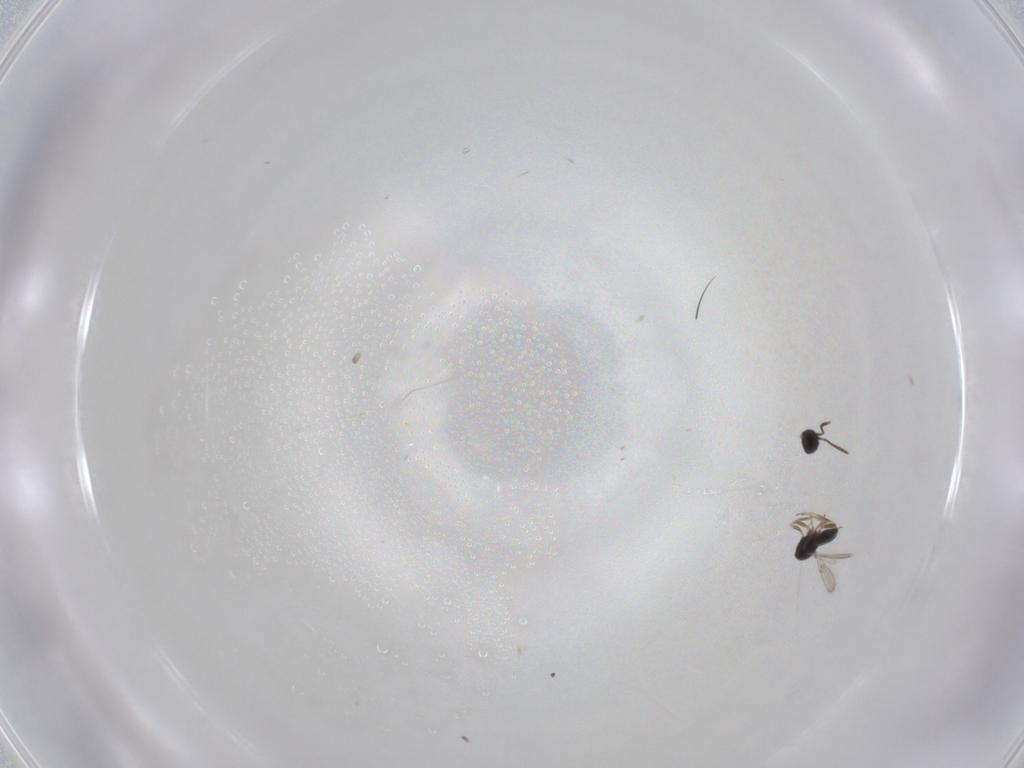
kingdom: Animalia
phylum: Arthropoda
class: Insecta
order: Hymenoptera
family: Scelionidae
